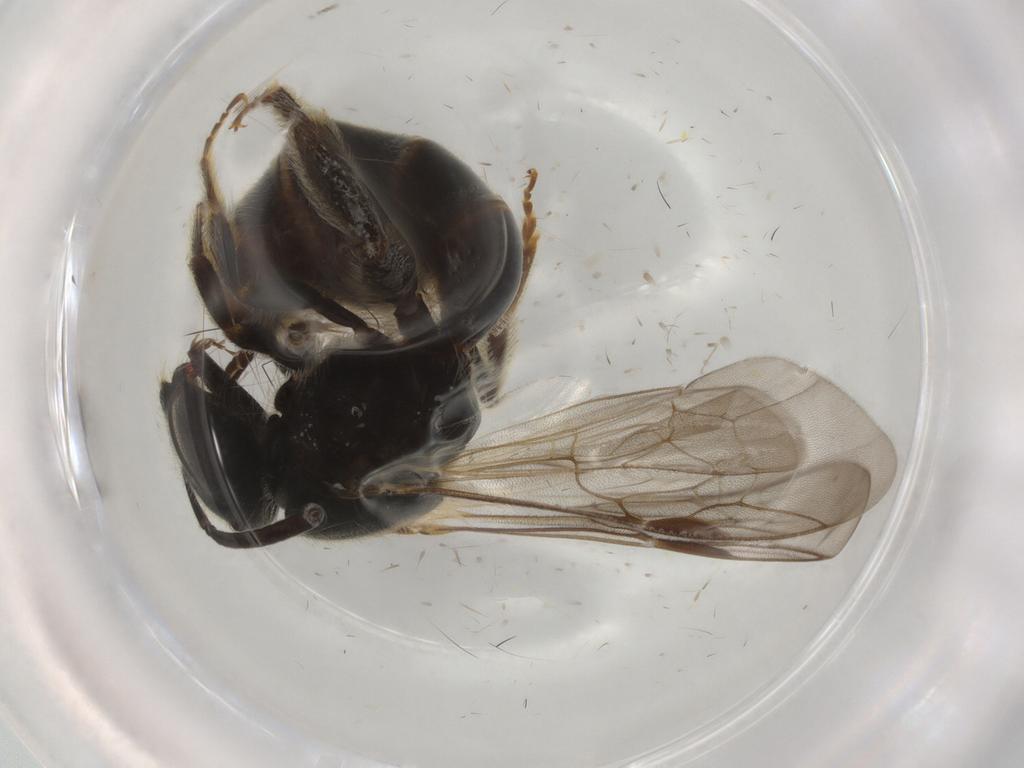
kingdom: Animalia
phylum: Arthropoda
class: Insecta
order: Hymenoptera
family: Halictidae
